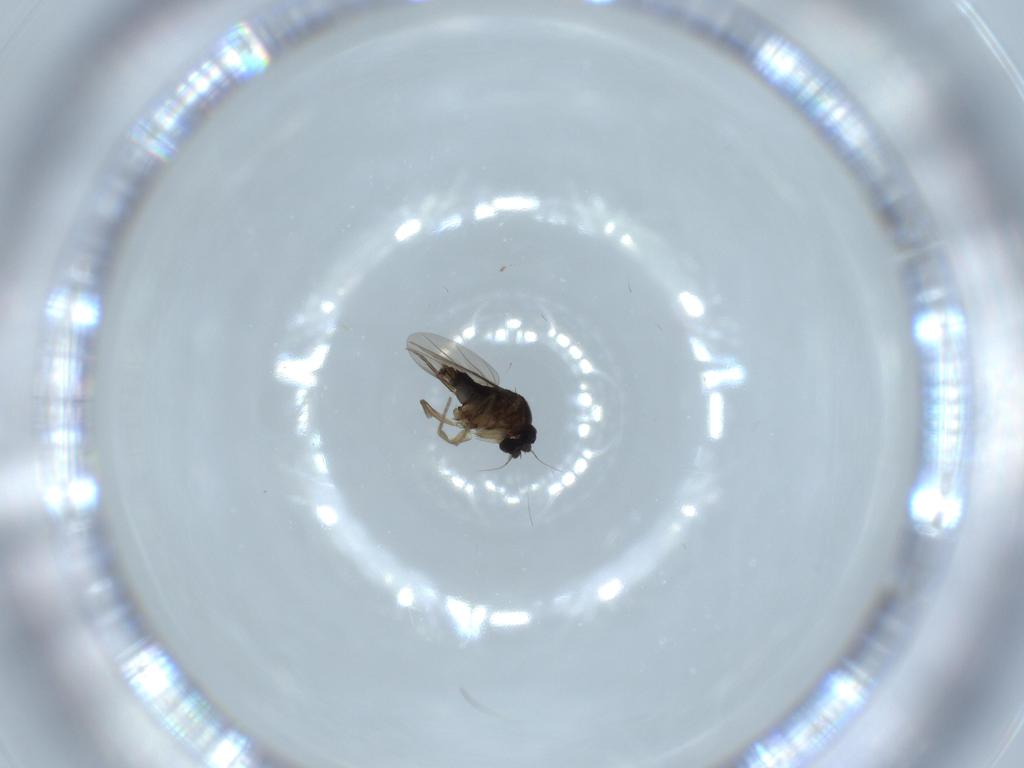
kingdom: Animalia
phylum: Arthropoda
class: Insecta
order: Diptera
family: Phoridae
